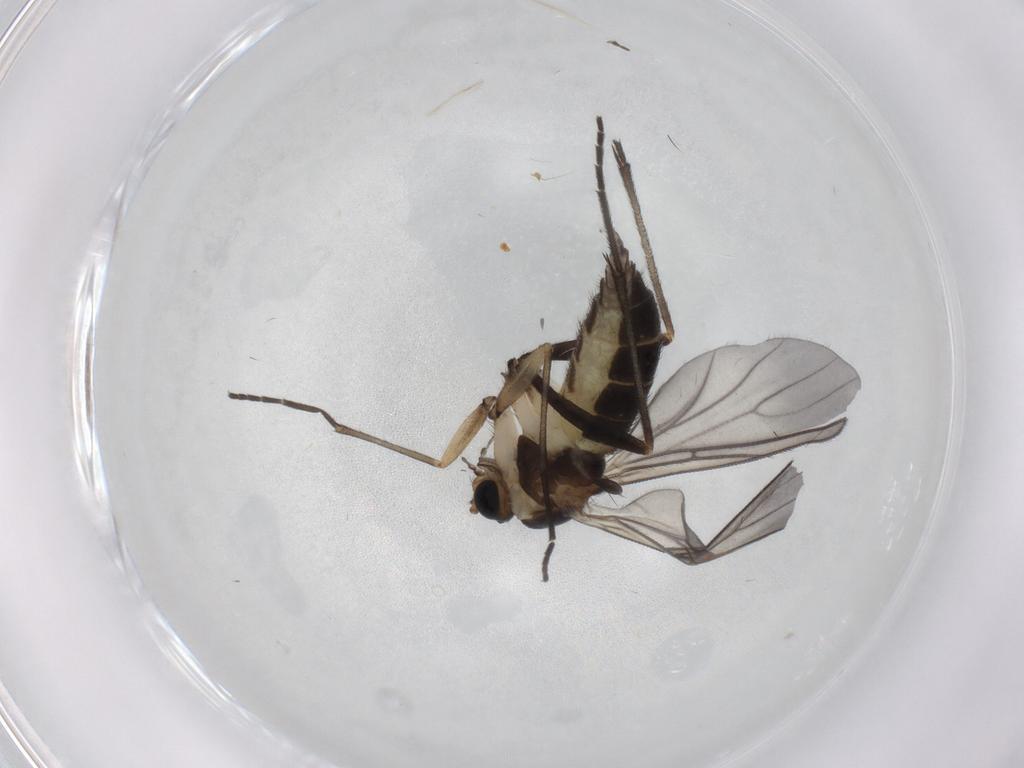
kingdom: Animalia
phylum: Arthropoda
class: Insecta
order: Diptera
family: Sciaridae
